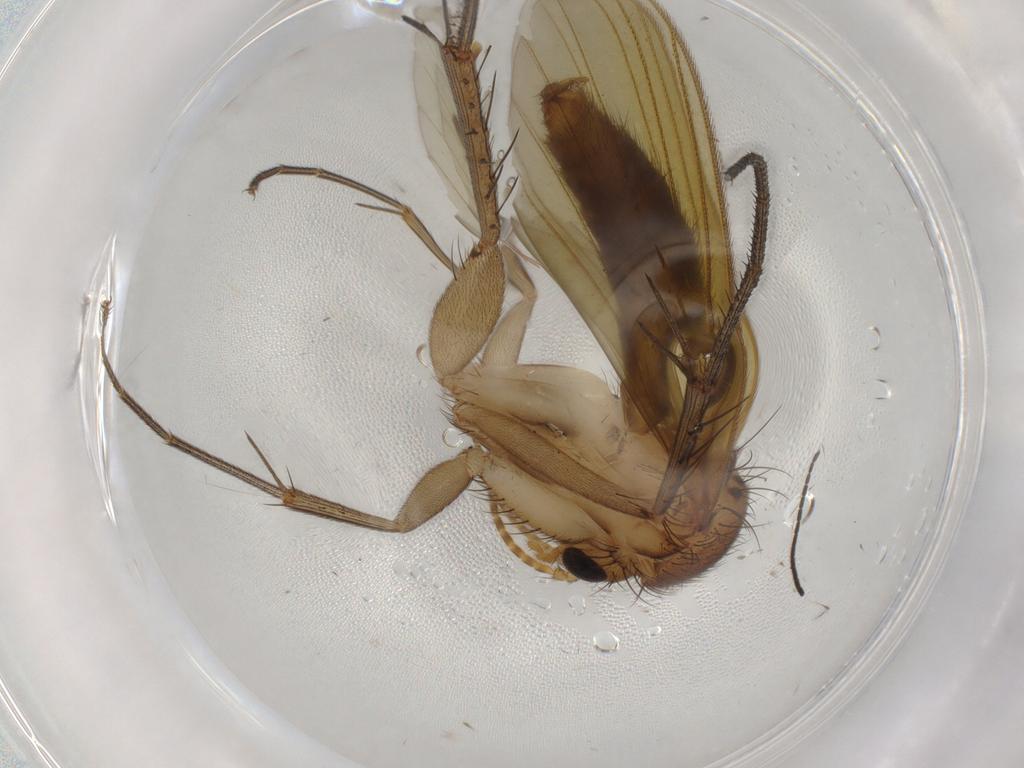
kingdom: Animalia
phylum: Arthropoda
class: Insecta
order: Diptera
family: Mycetophilidae
